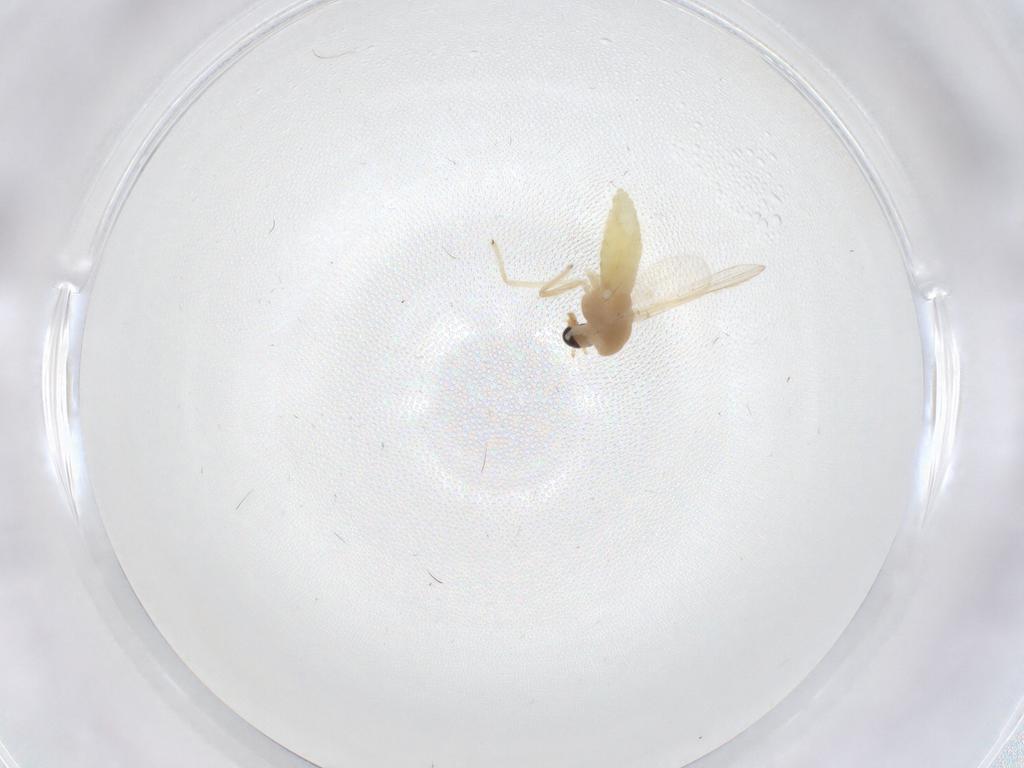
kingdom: Animalia
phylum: Arthropoda
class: Insecta
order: Diptera
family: Chironomidae
